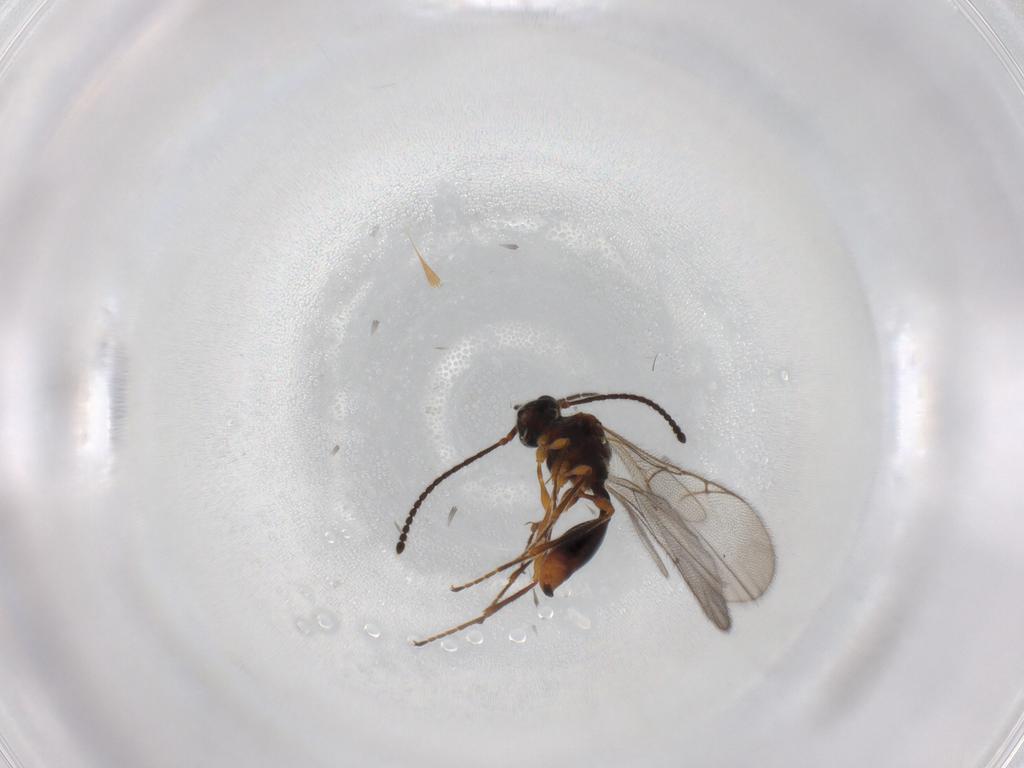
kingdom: Animalia
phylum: Arthropoda
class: Insecta
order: Hymenoptera
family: Diapriidae
